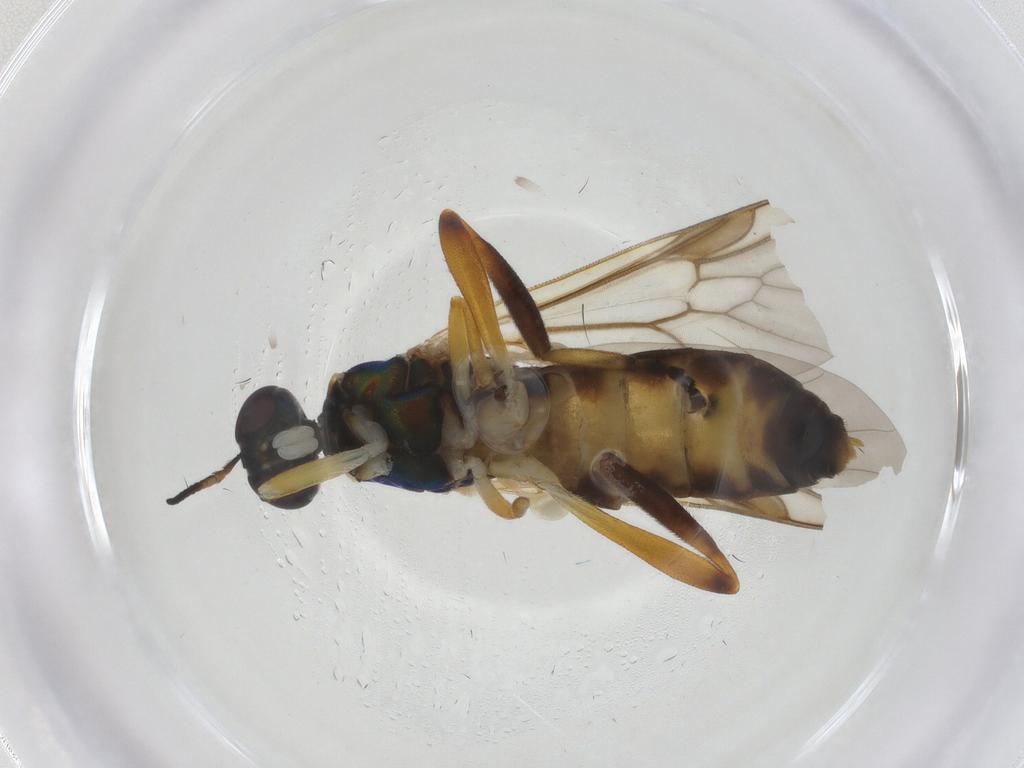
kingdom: Animalia
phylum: Arthropoda
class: Insecta
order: Diptera
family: Stratiomyidae
